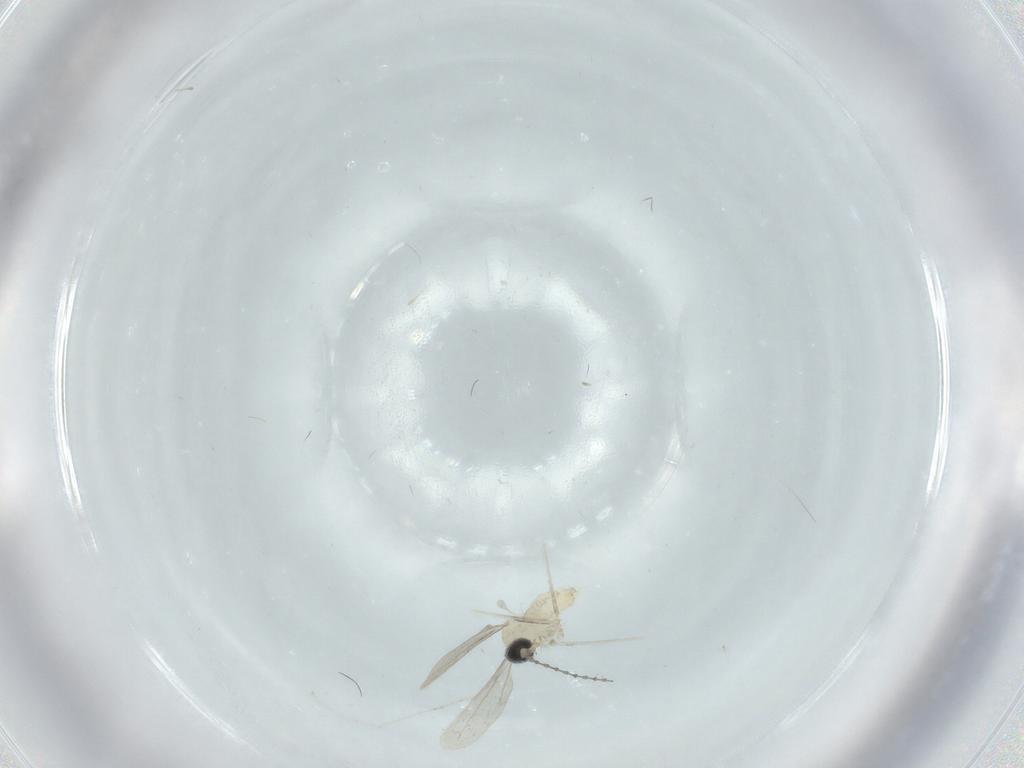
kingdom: Animalia
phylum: Arthropoda
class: Insecta
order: Diptera
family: Cecidomyiidae
